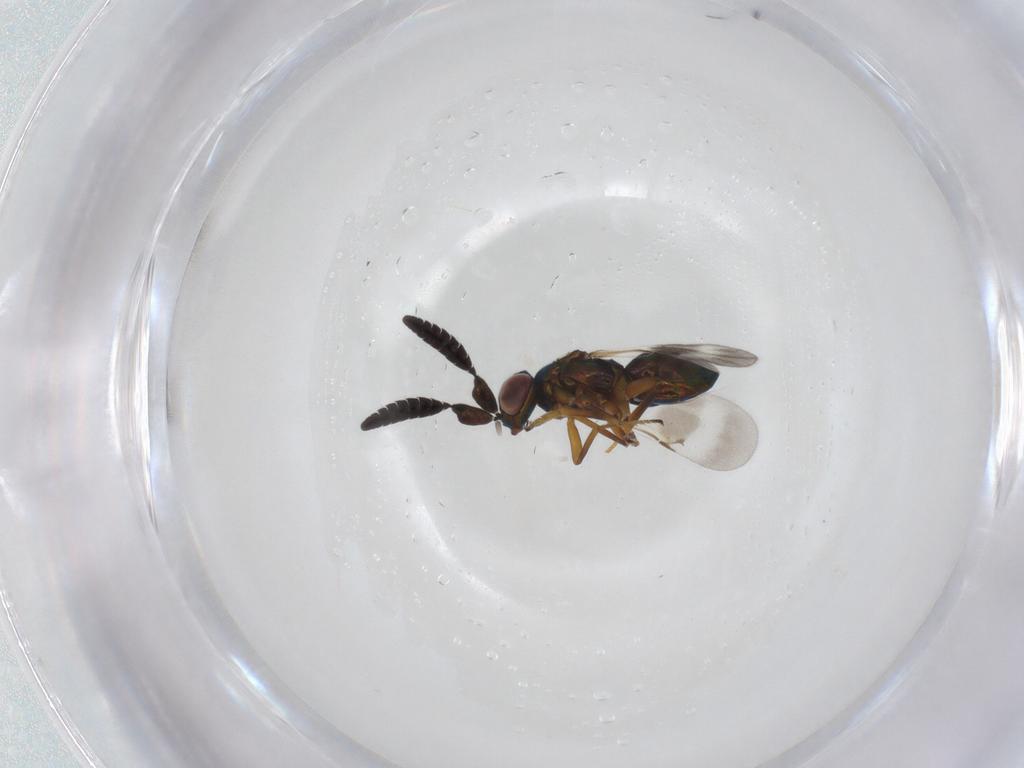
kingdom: Animalia
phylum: Arthropoda
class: Insecta
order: Hymenoptera
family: Encyrtidae
